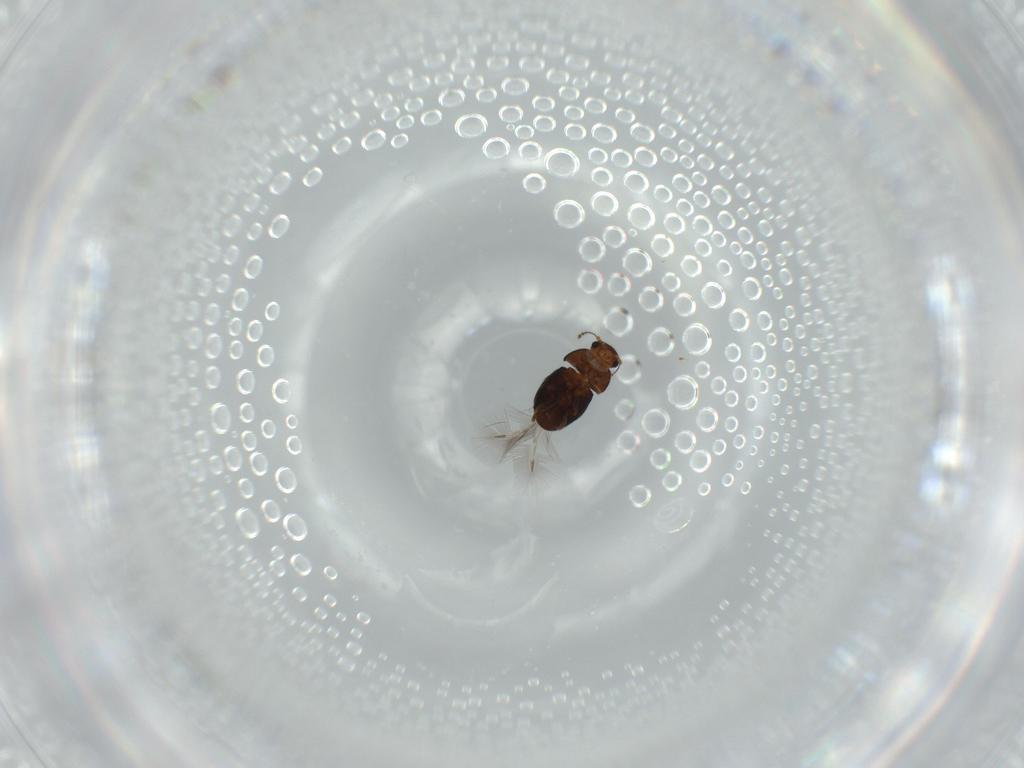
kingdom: Animalia
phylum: Arthropoda
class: Insecta
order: Coleoptera
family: Ptiliidae
